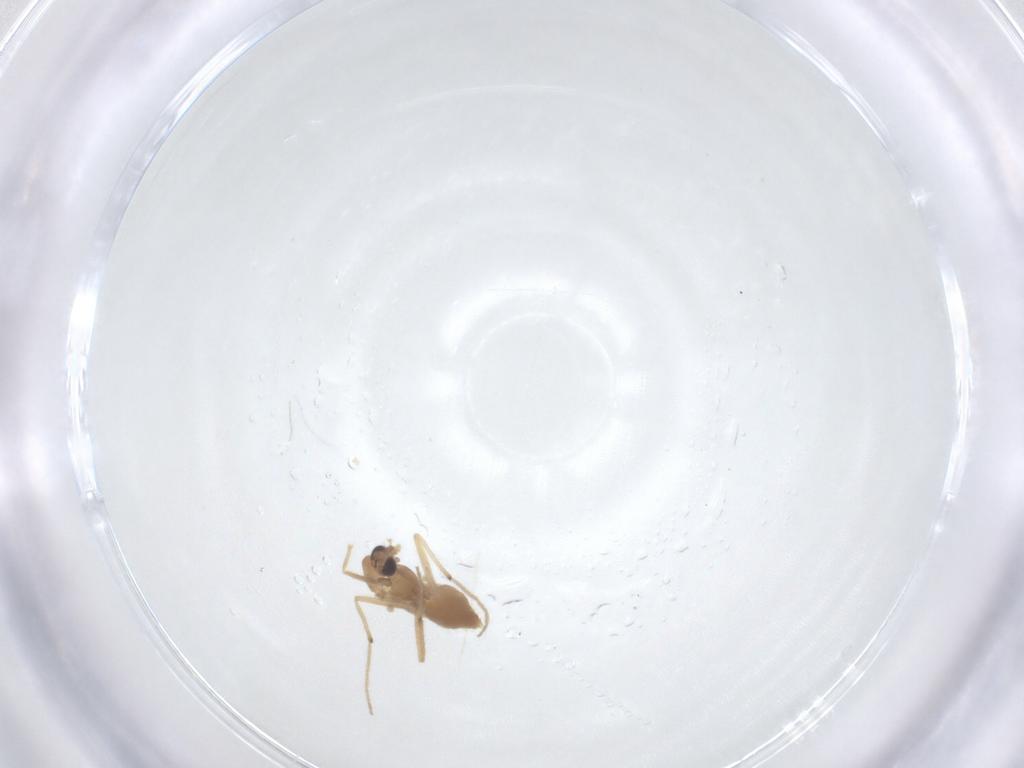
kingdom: Animalia
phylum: Arthropoda
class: Insecta
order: Diptera
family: Chironomidae
